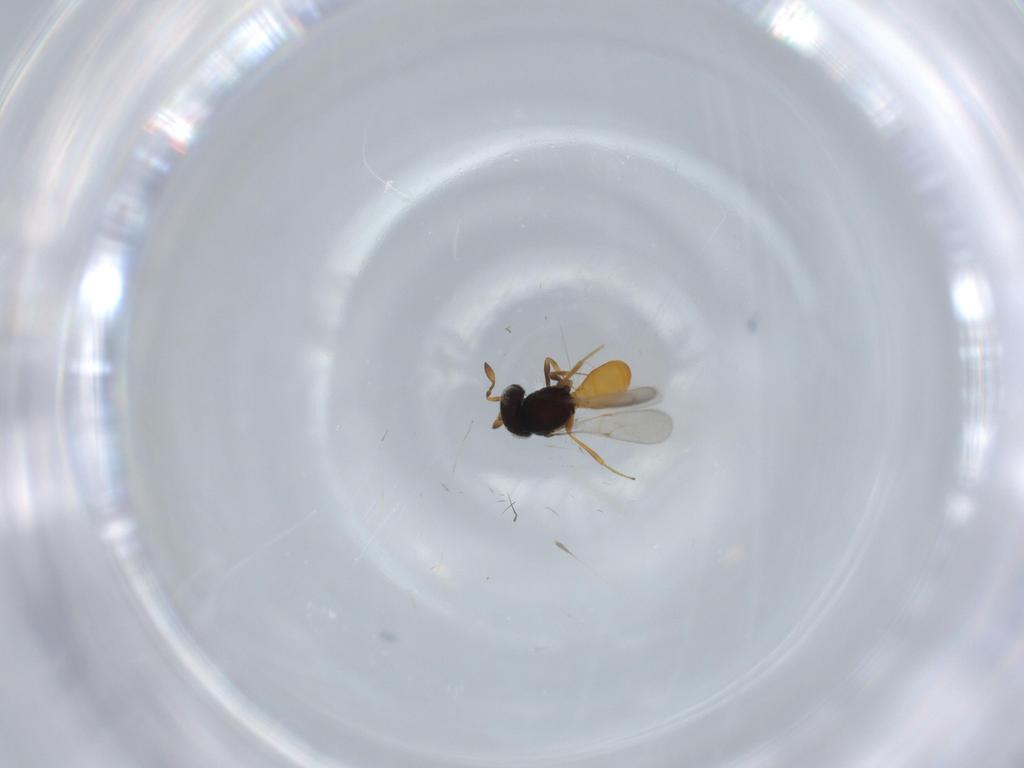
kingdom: Animalia
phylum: Arthropoda
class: Insecta
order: Hymenoptera
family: Scelionidae
